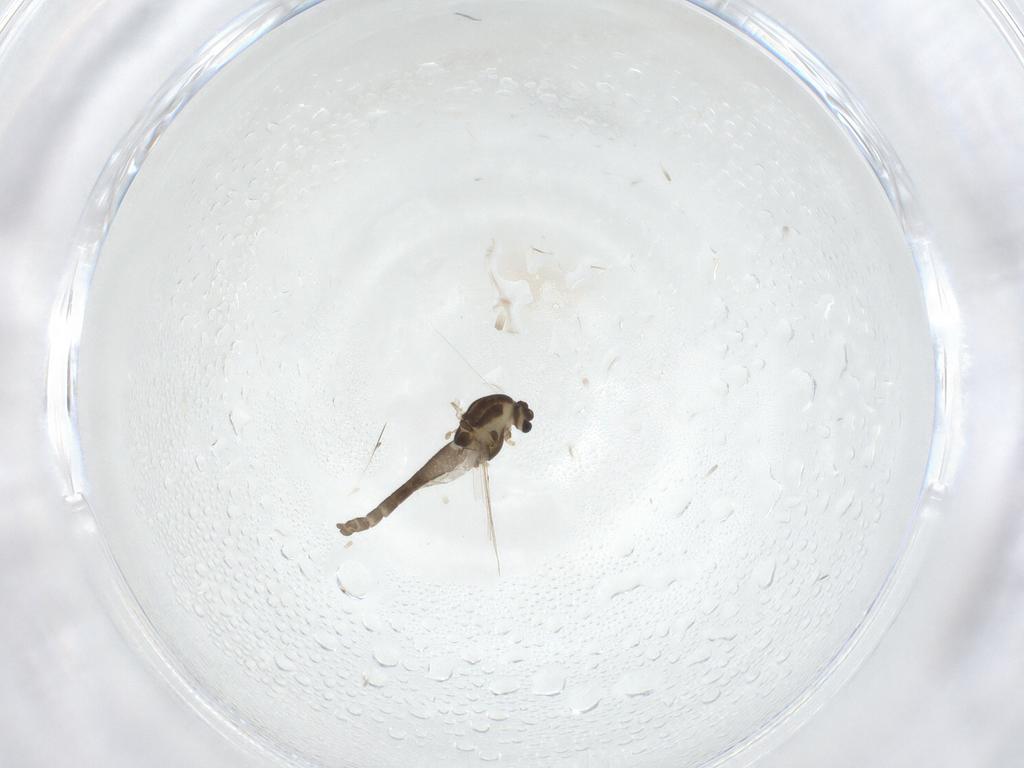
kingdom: Animalia
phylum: Arthropoda
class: Insecta
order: Diptera
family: Chironomidae
